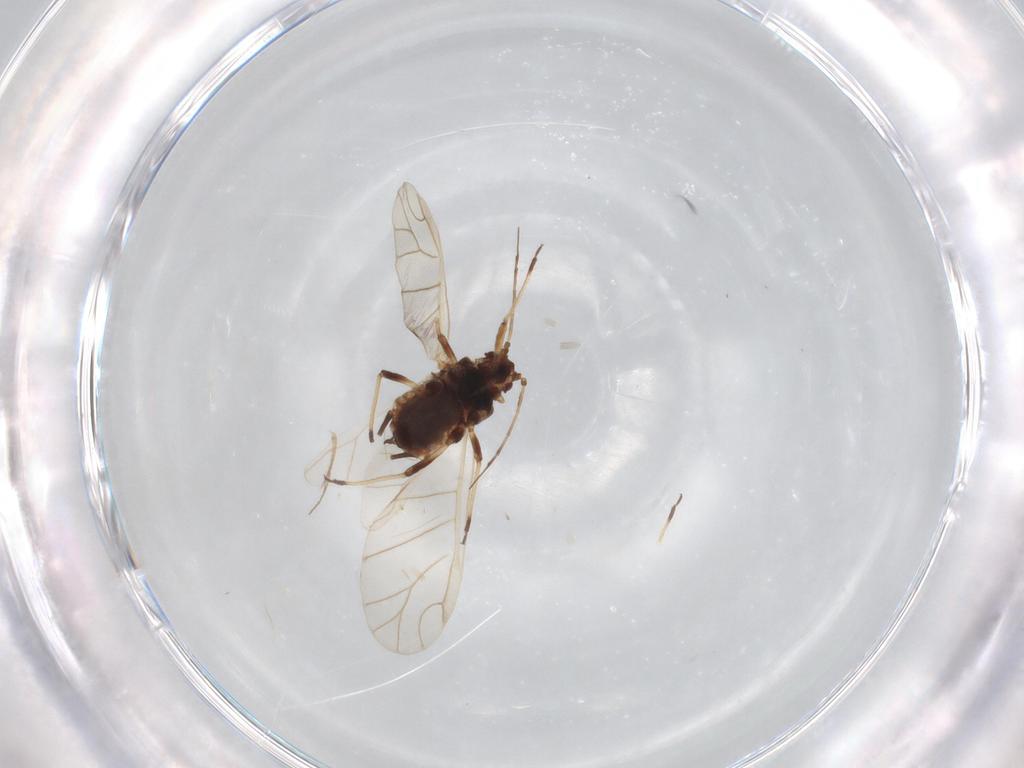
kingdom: Animalia
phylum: Arthropoda
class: Insecta
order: Hemiptera
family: Aphididae
